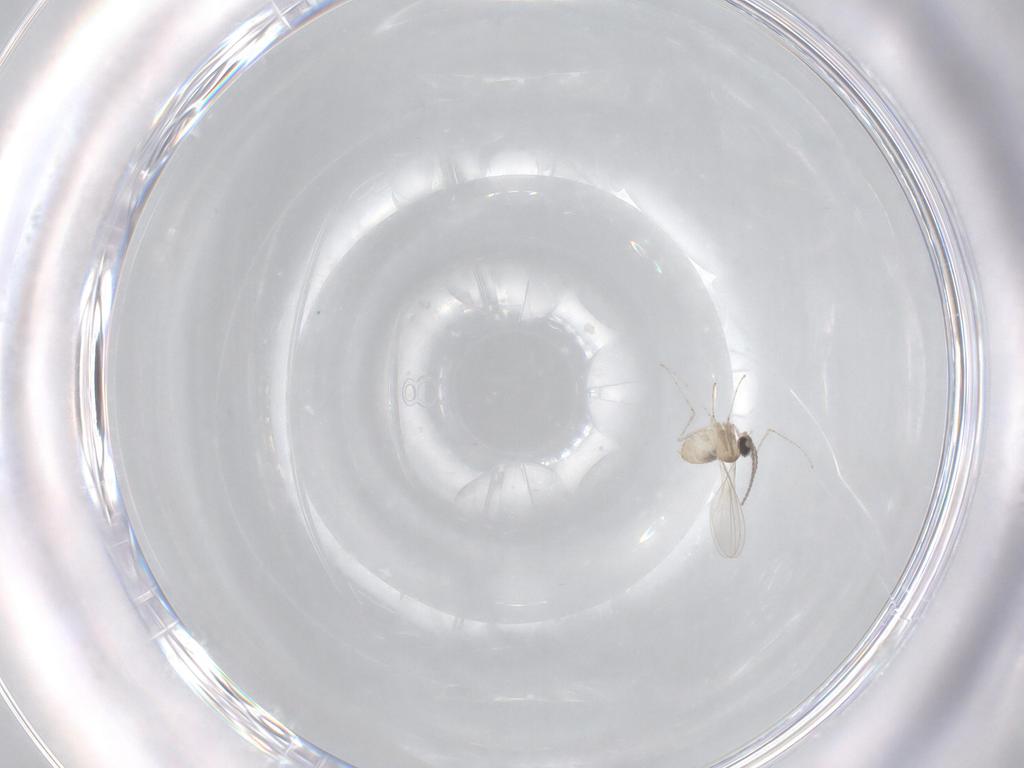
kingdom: Animalia
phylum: Arthropoda
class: Insecta
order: Diptera
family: Cecidomyiidae
